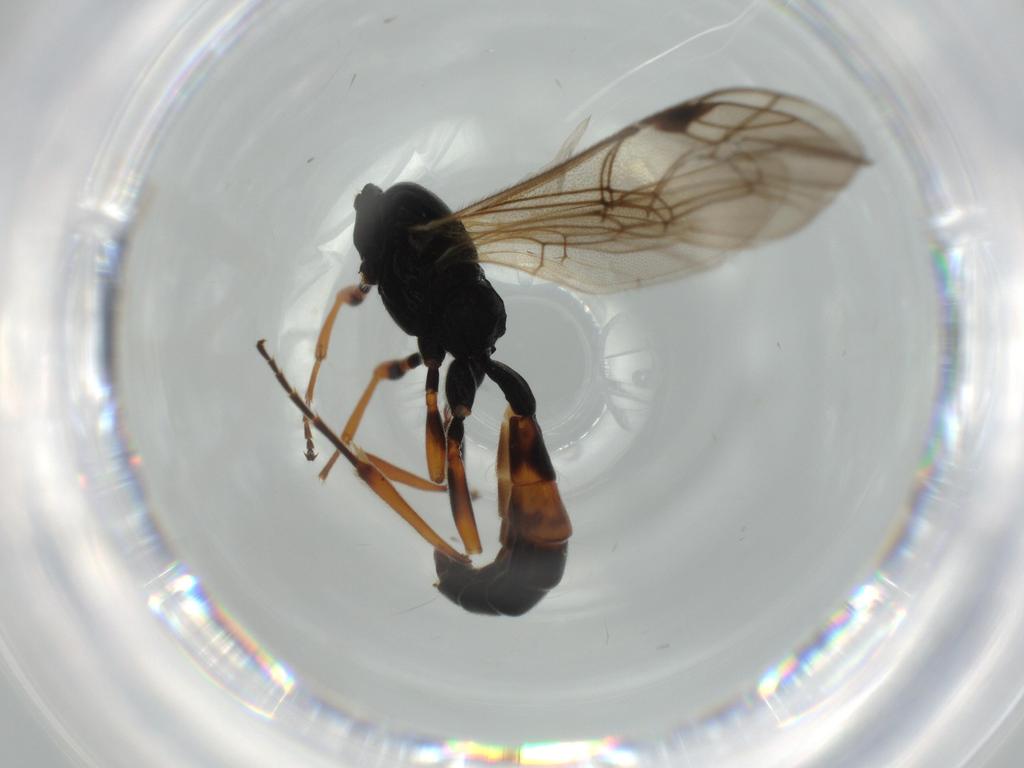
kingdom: Animalia
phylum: Arthropoda
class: Insecta
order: Hymenoptera
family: Ichneumonidae
